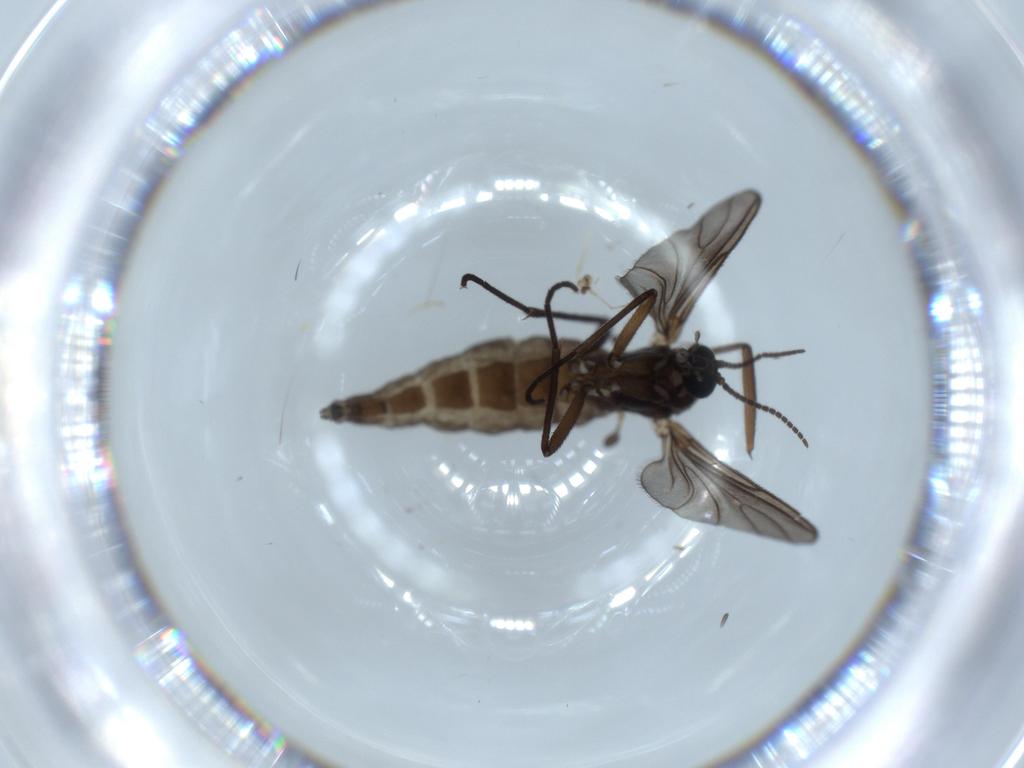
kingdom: Animalia
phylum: Arthropoda
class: Insecta
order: Diptera
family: Sciaridae
